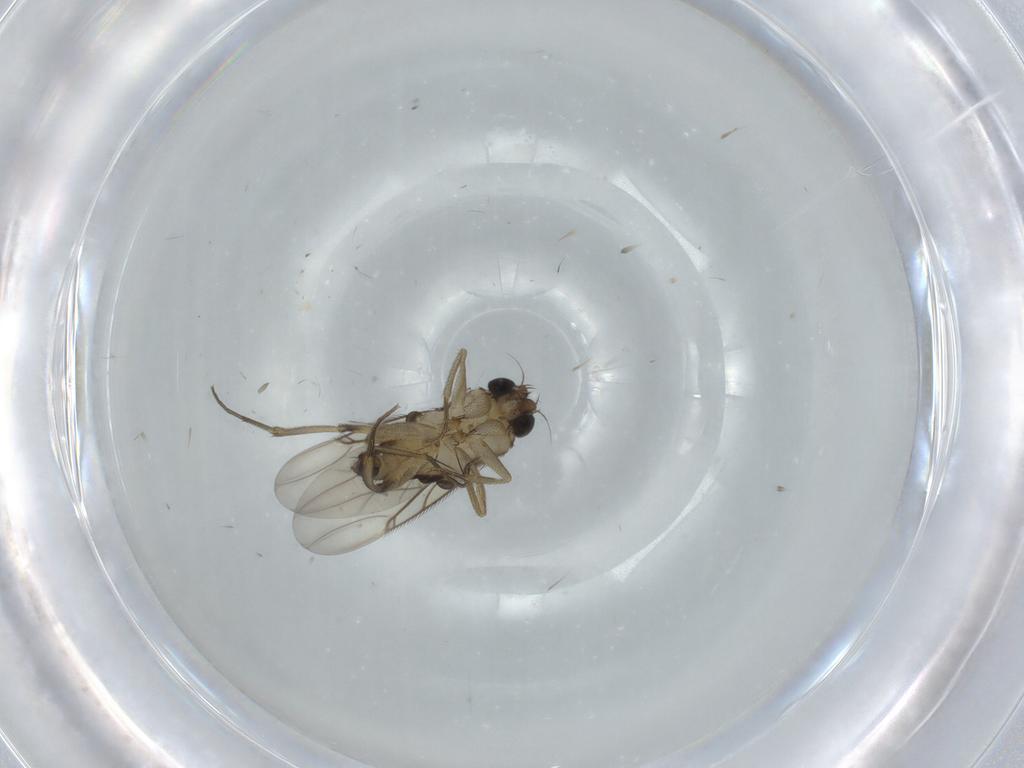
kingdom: Animalia
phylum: Arthropoda
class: Insecta
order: Diptera
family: Phoridae
